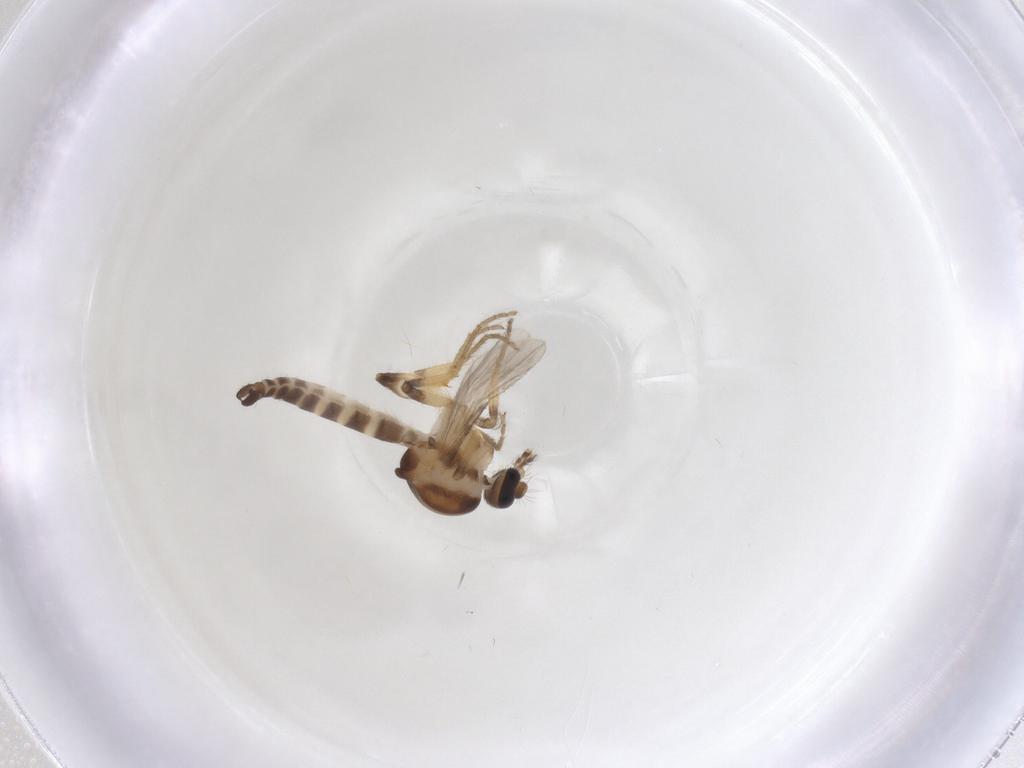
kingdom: Animalia
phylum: Arthropoda
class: Insecta
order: Diptera
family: Ceratopogonidae
